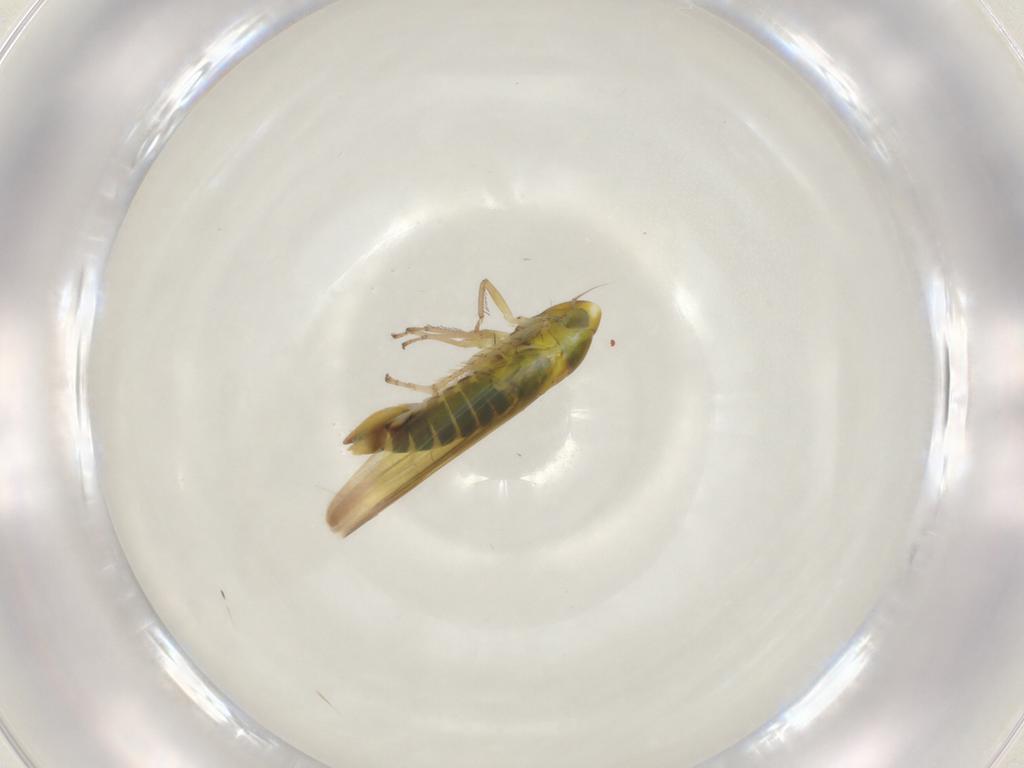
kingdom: Animalia
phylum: Arthropoda
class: Insecta
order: Hemiptera
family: Cicadellidae
